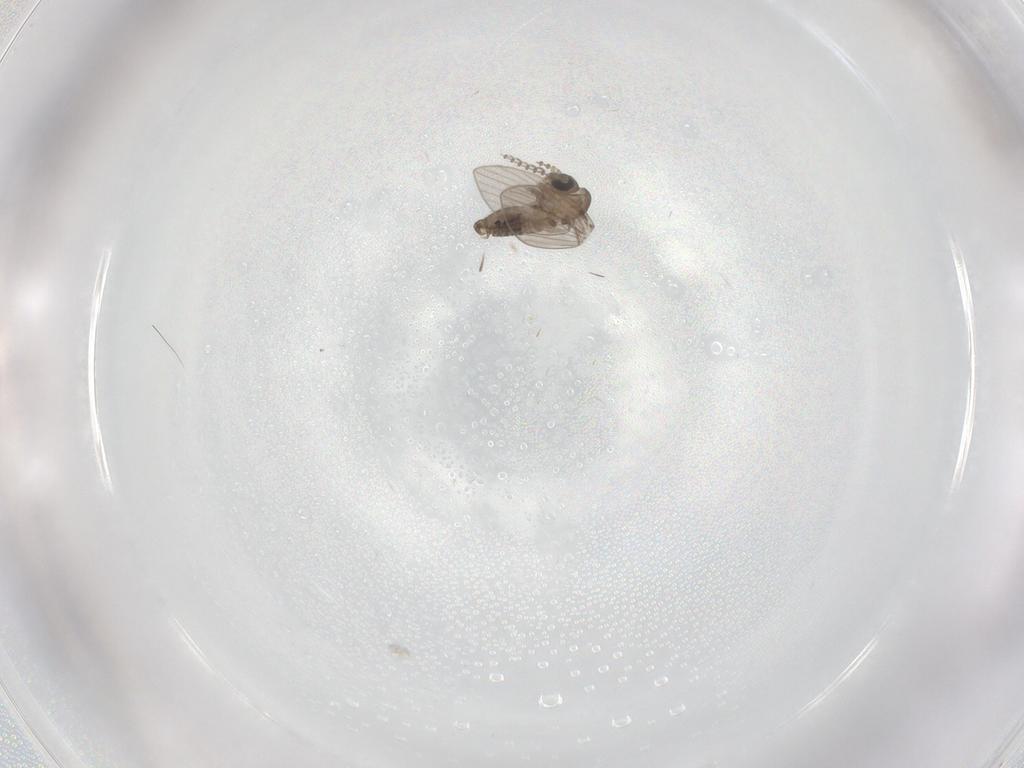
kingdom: Animalia
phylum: Arthropoda
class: Insecta
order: Diptera
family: Psychodidae
